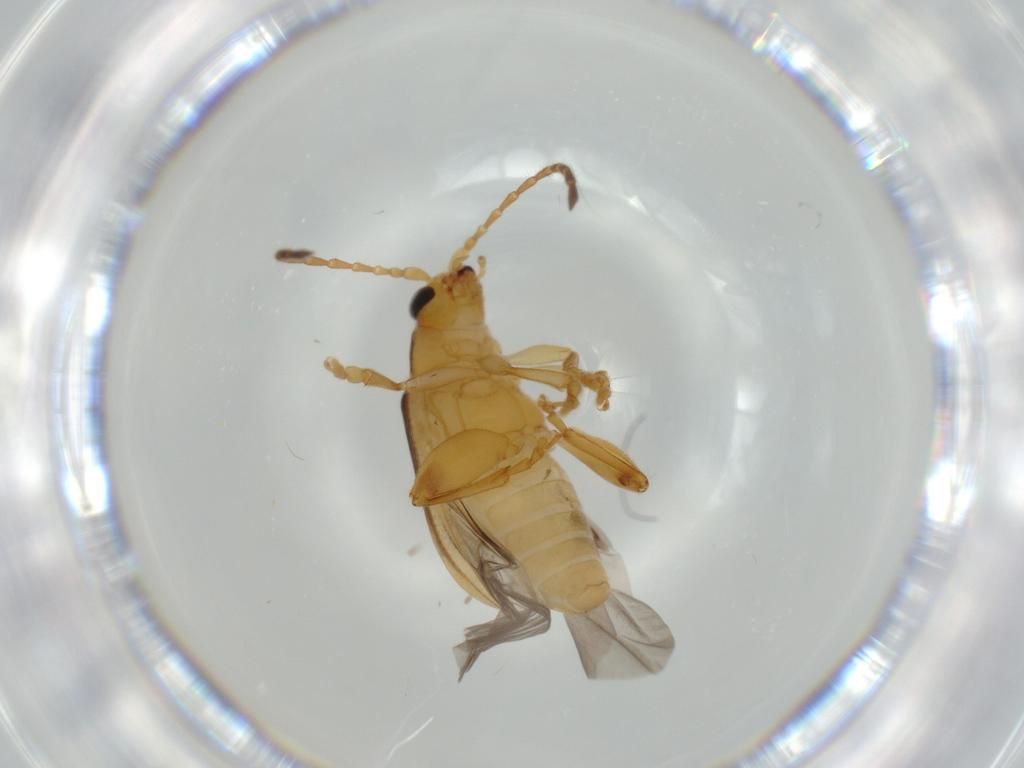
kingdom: Animalia
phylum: Arthropoda
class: Insecta
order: Coleoptera
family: Chrysomelidae
